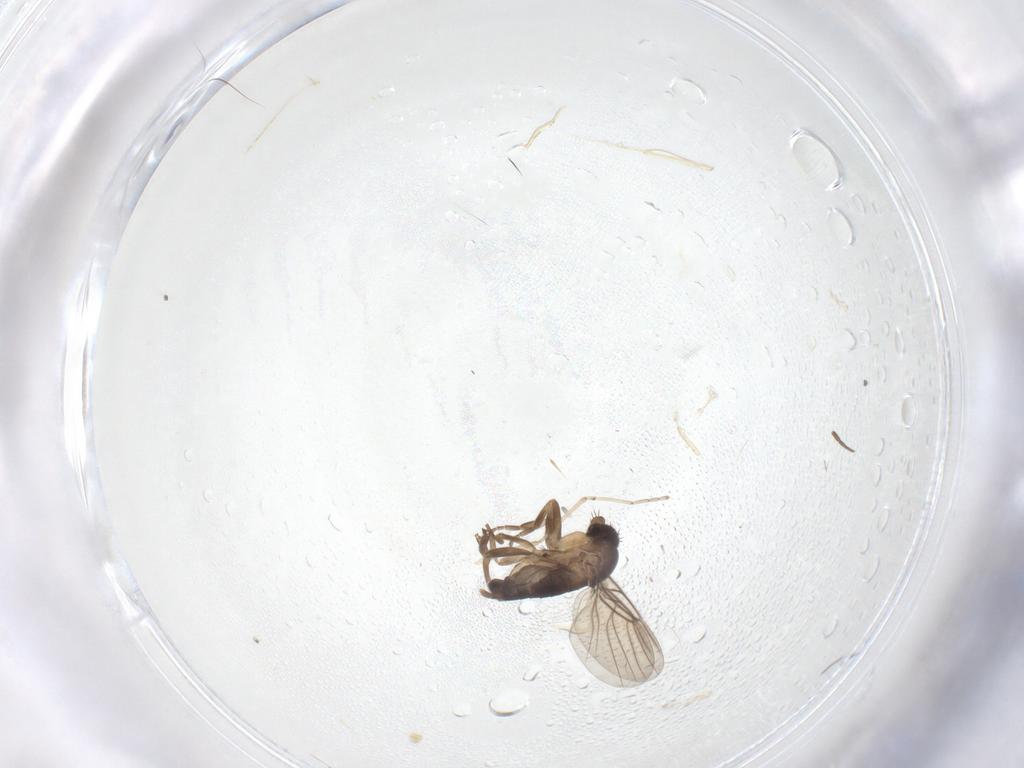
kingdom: Animalia
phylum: Arthropoda
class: Insecta
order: Diptera
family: Phoridae
